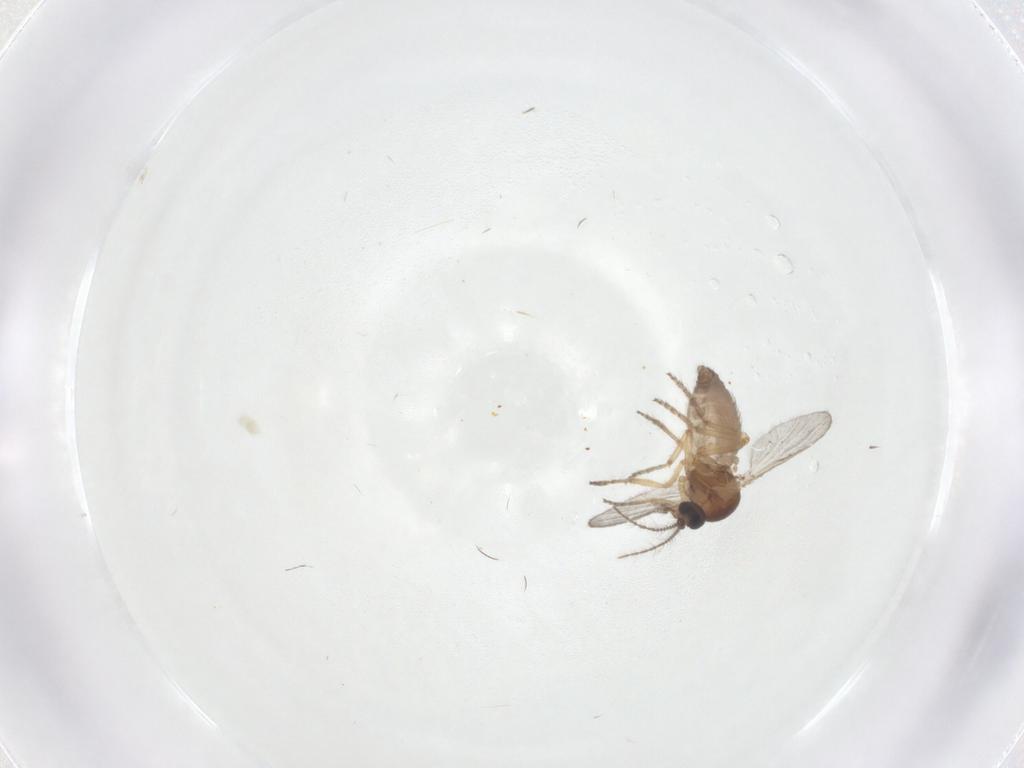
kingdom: Animalia
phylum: Arthropoda
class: Insecta
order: Diptera
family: Ceratopogonidae
